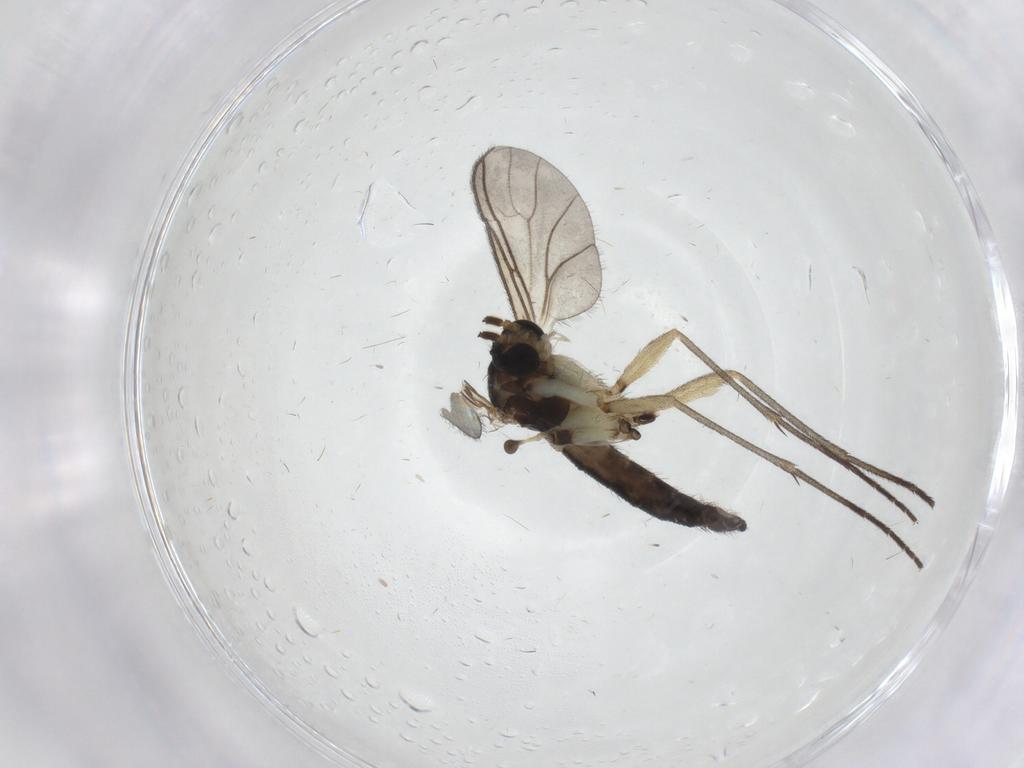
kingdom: Animalia
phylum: Arthropoda
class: Insecta
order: Diptera
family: Sciaridae
